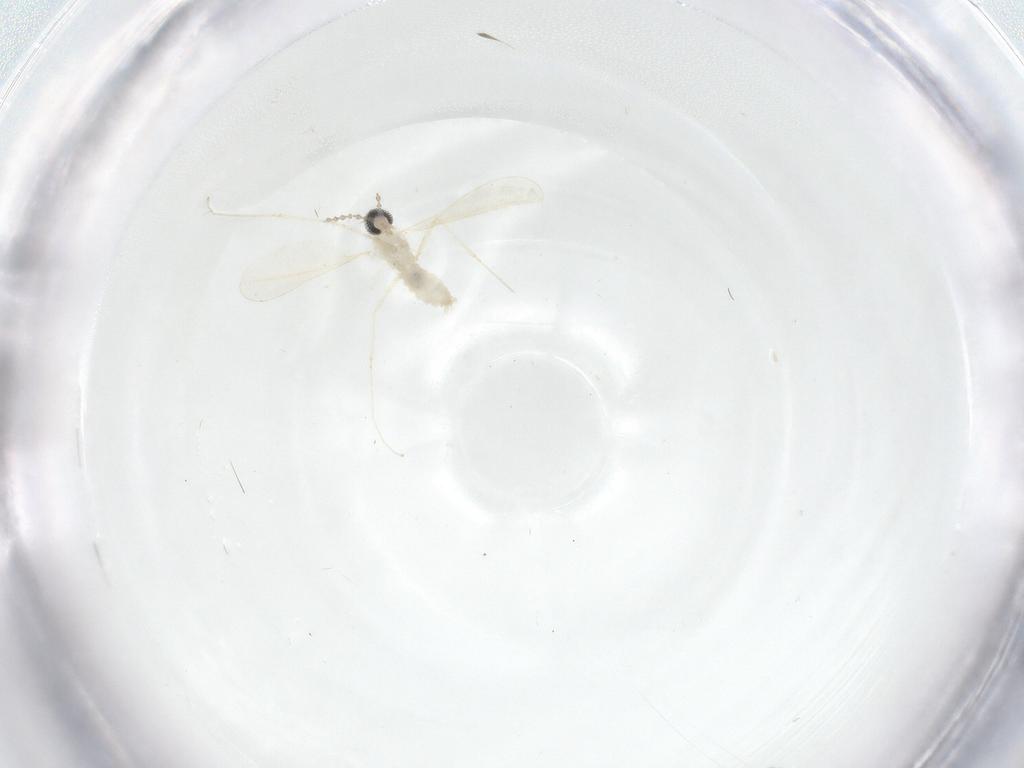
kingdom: Animalia
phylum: Arthropoda
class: Insecta
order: Diptera
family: Cecidomyiidae
